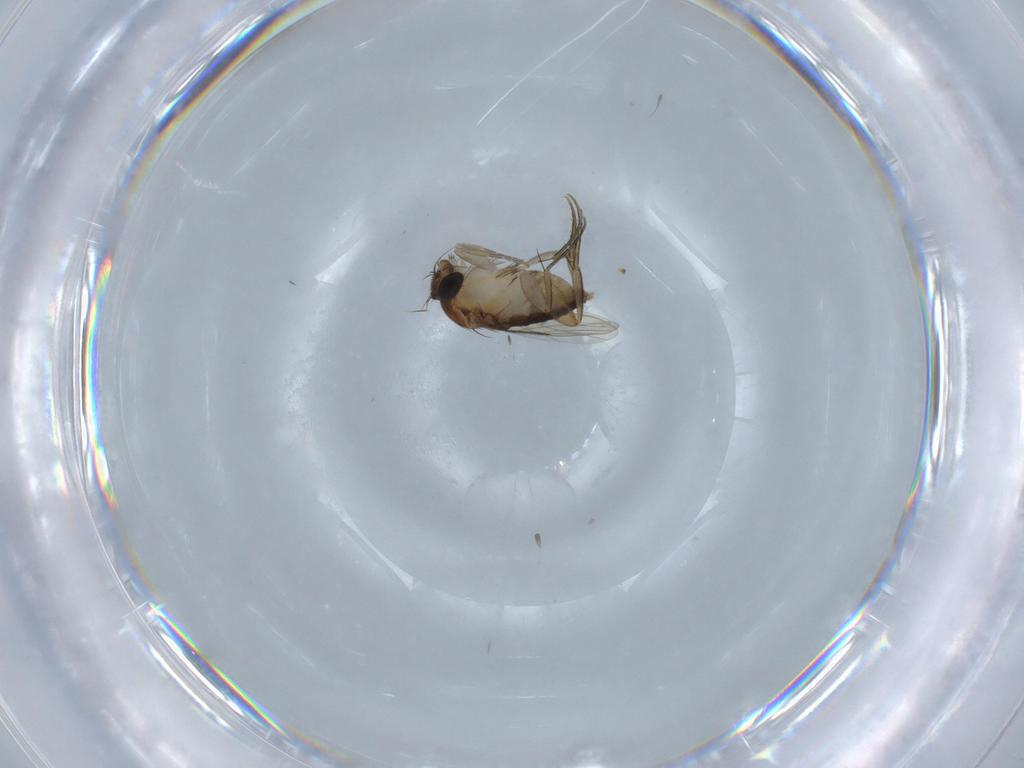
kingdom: Animalia
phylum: Arthropoda
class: Insecta
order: Diptera
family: Phoridae
